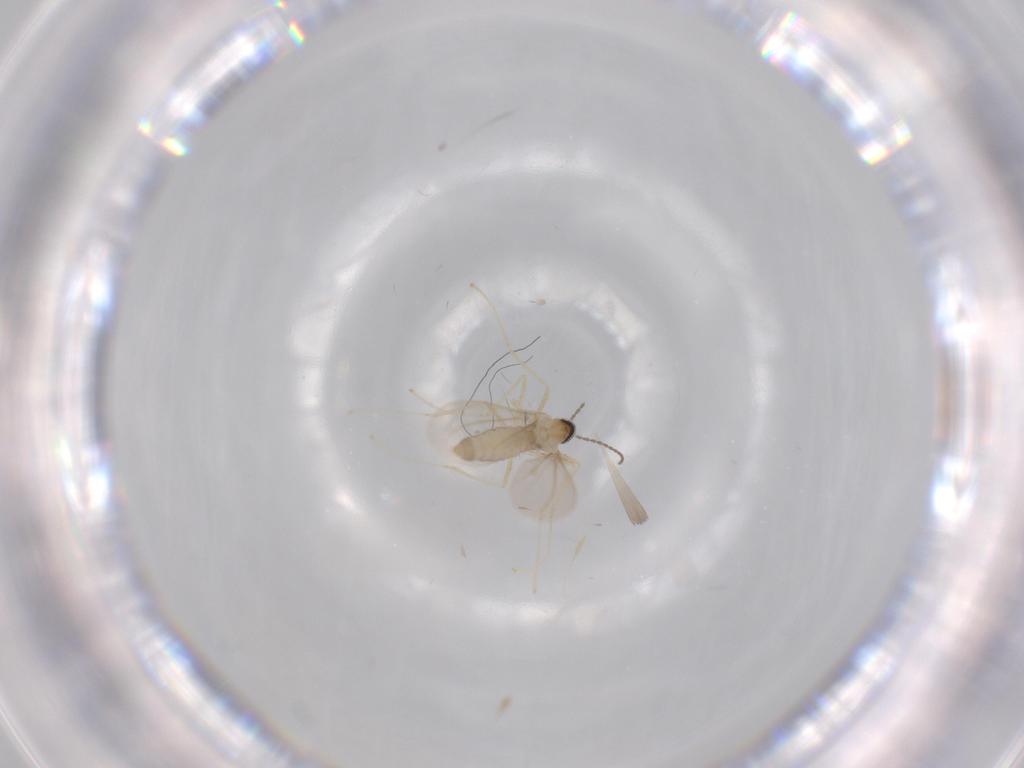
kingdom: Animalia
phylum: Arthropoda
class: Insecta
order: Diptera
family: Cecidomyiidae
